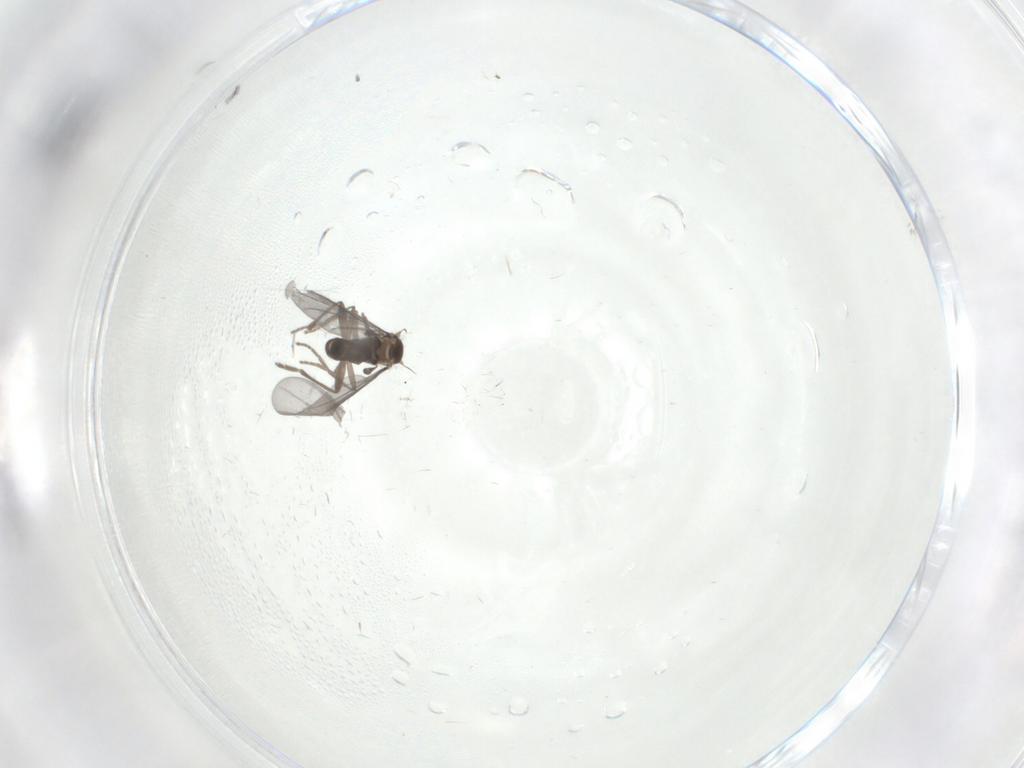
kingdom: Animalia
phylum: Arthropoda
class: Insecta
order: Diptera
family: Phoridae
